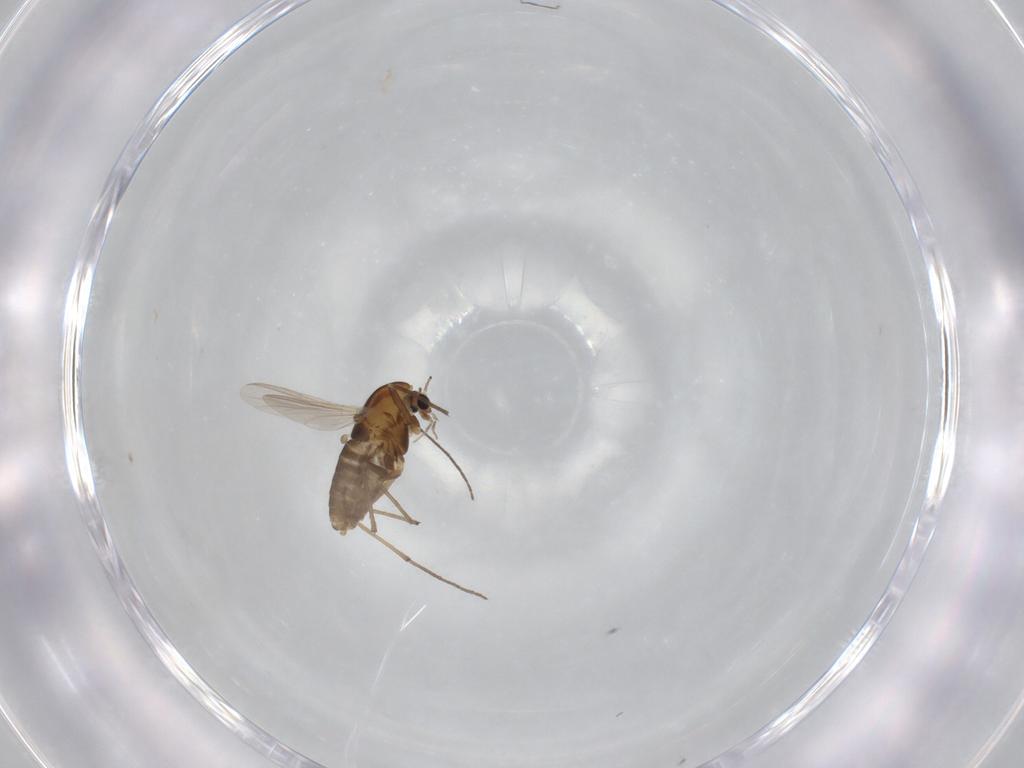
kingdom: Animalia
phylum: Arthropoda
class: Insecta
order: Diptera
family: Chironomidae
